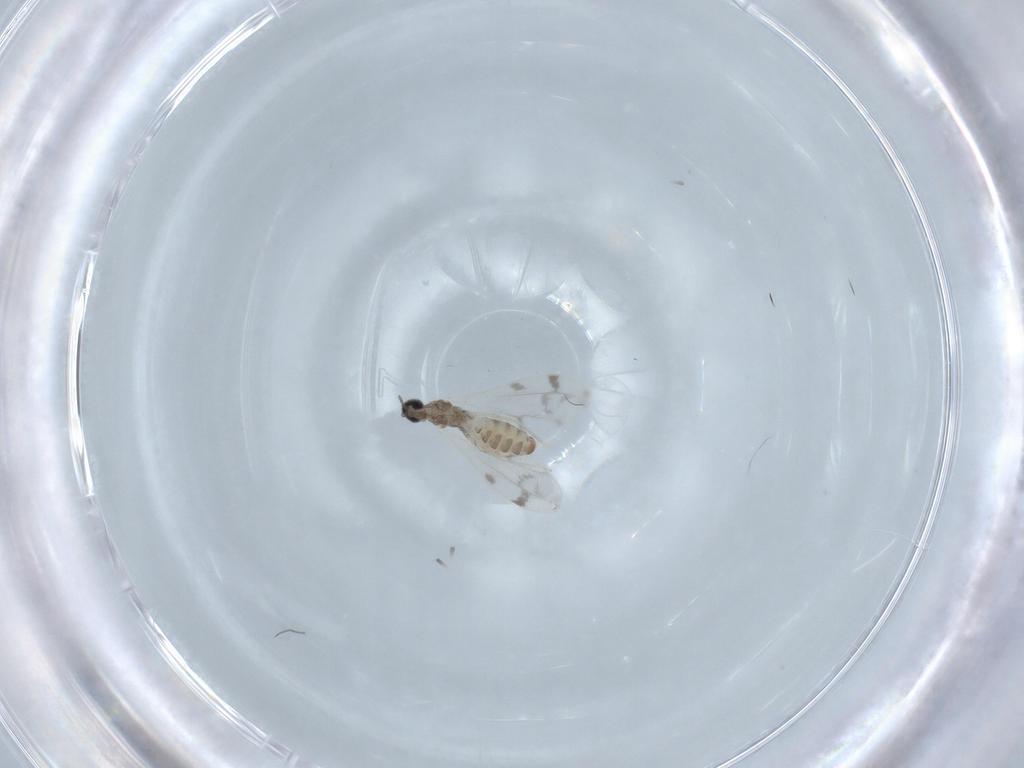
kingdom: Animalia
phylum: Arthropoda
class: Insecta
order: Diptera
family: Cecidomyiidae
